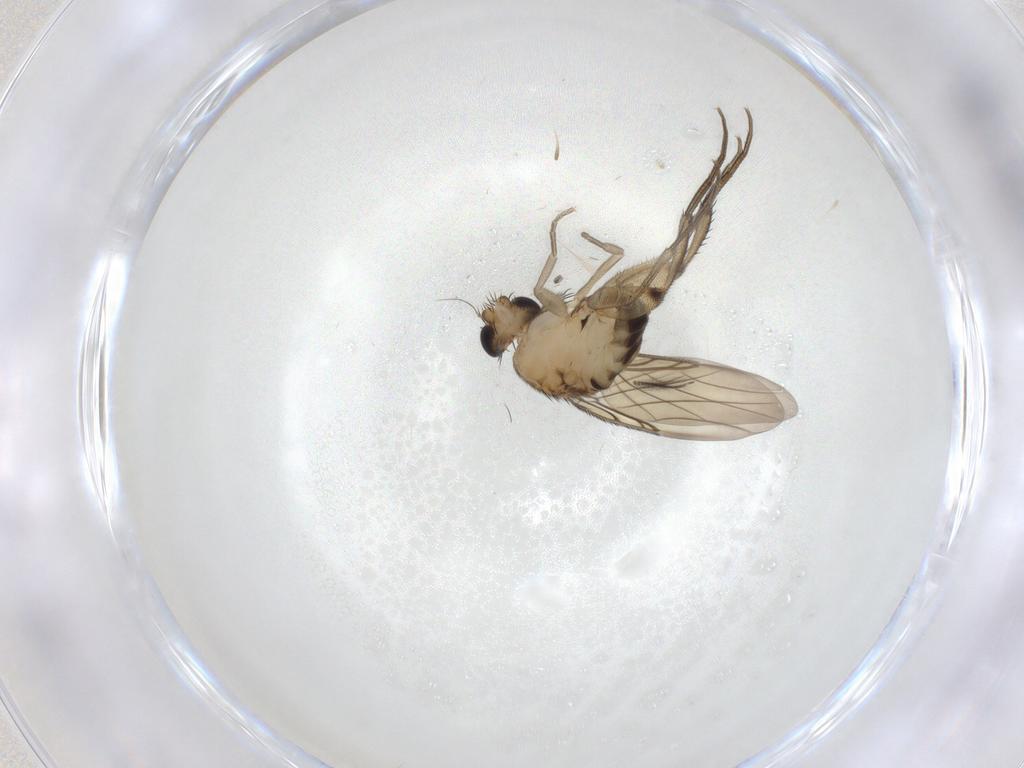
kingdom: Animalia
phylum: Arthropoda
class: Insecta
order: Diptera
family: Phoridae
